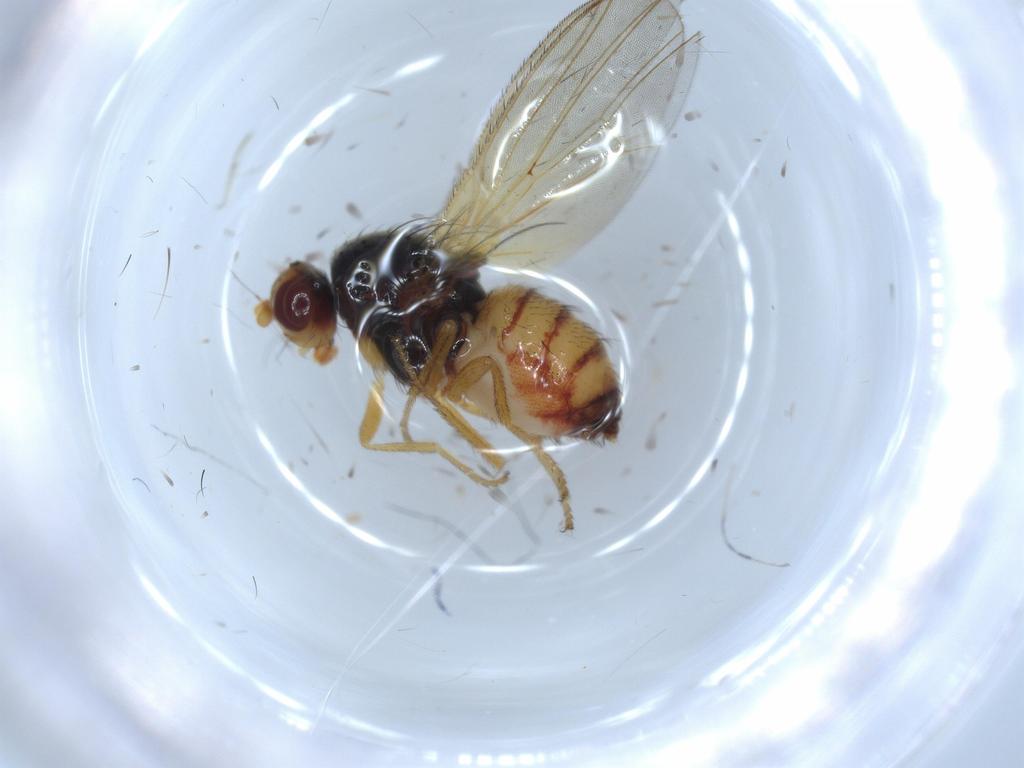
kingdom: Animalia
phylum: Arthropoda
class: Insecta
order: Diptera
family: Heleomyzidae
